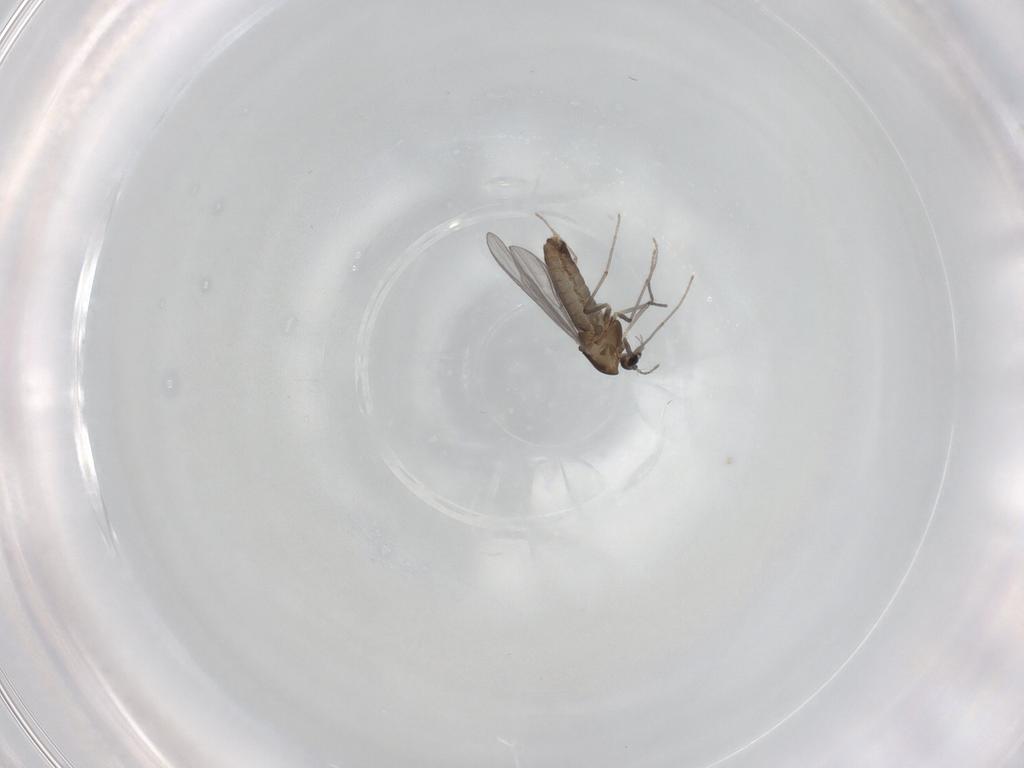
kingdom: Animalia
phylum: Arthropoda
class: Insecta
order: Diptera
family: Chironomidae
